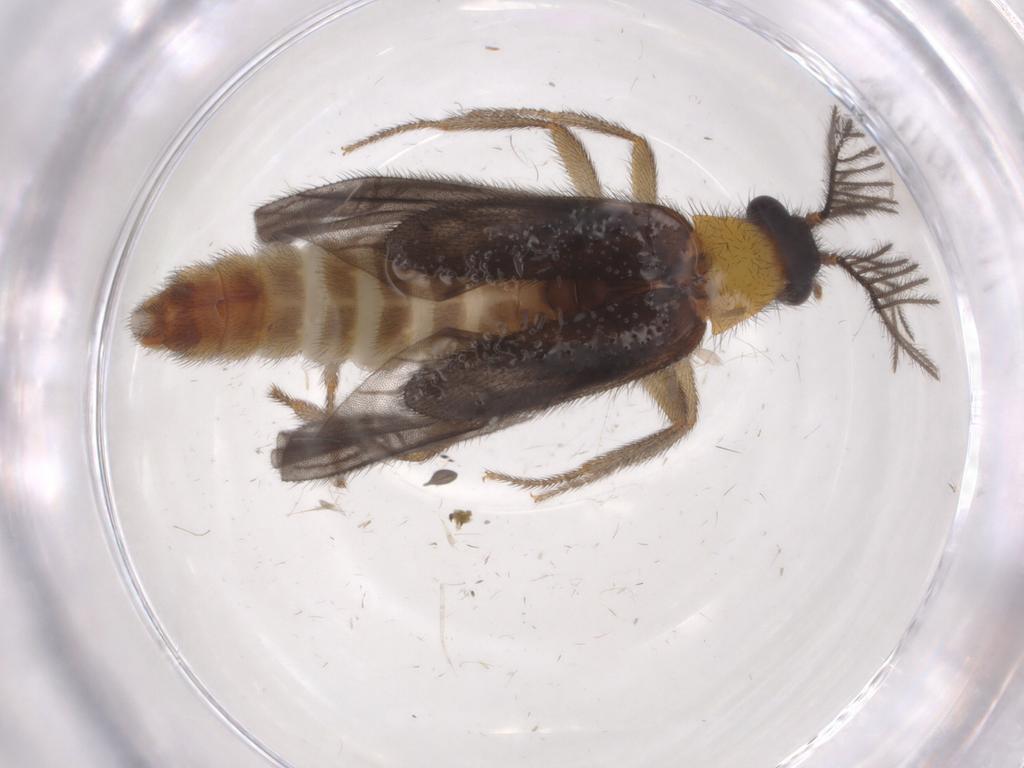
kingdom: Animalia
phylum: Arthropoda
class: Insecta
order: Coleoptera
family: Phengodidae
